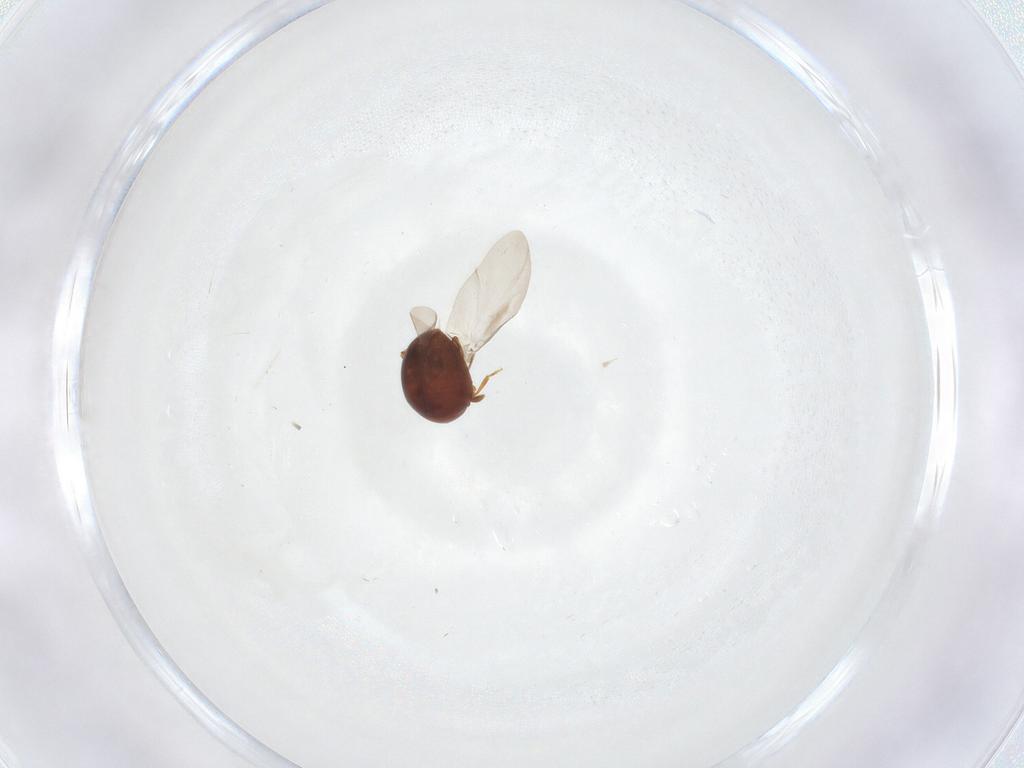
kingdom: Animalia
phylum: Arthropoda
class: Insecta
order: Coleoptera
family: Chrysomelidae
